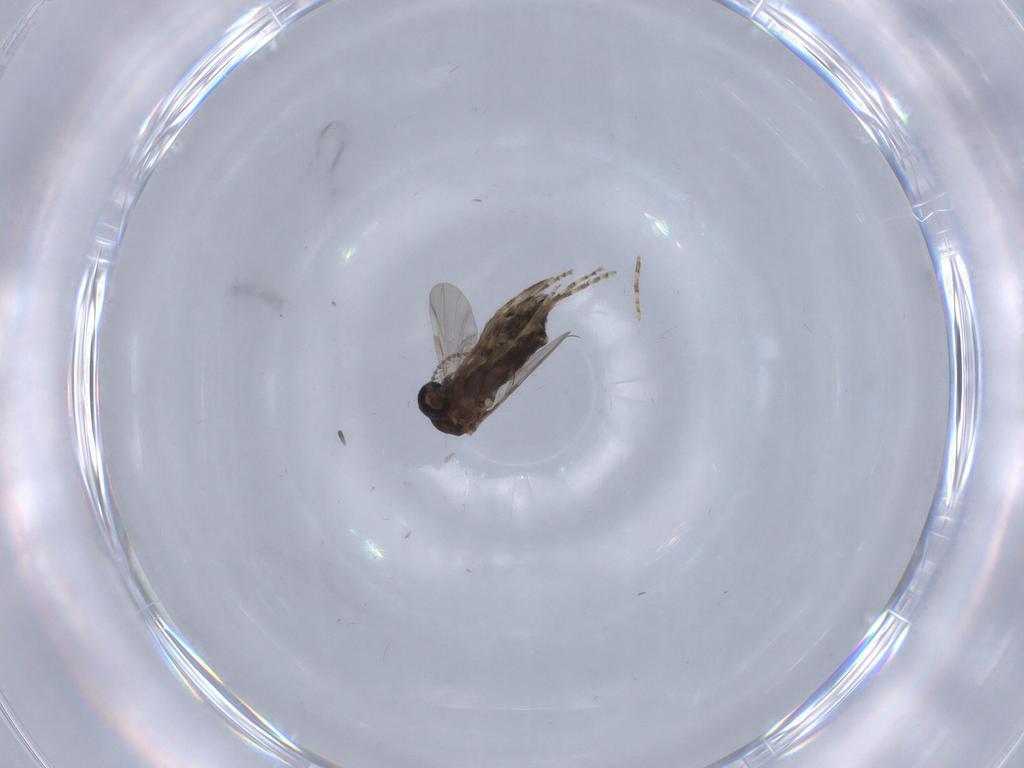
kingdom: Animalia
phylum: Arthropoda
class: Insecta
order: Diptera
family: Ceratopogonidae
